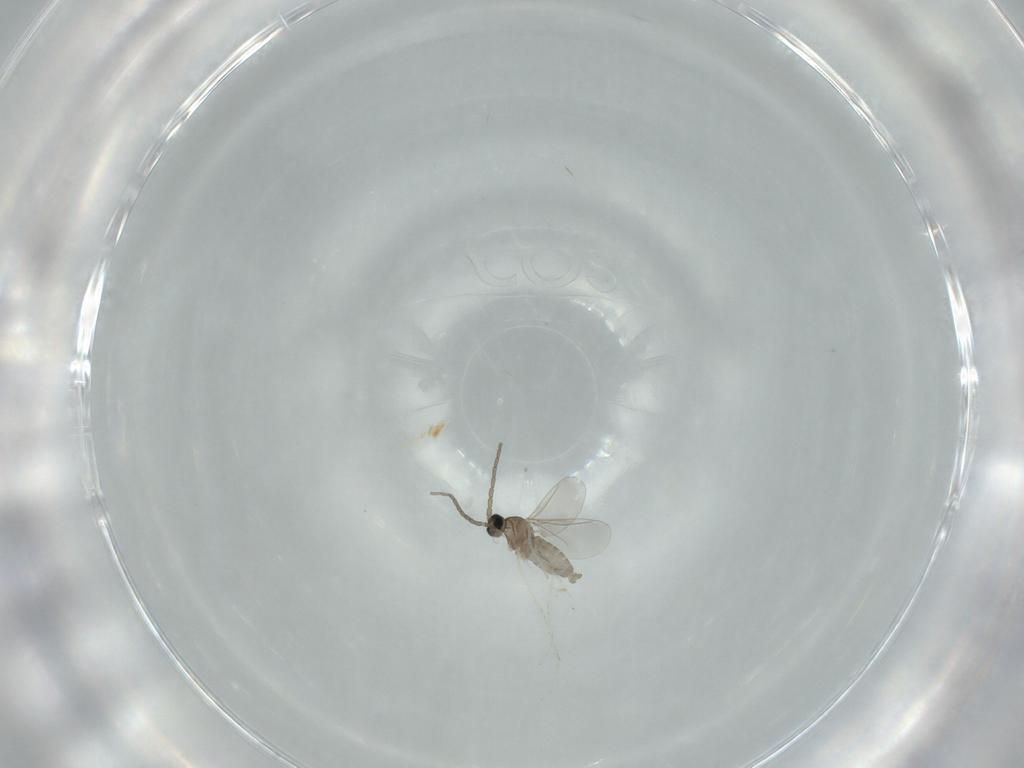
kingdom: Animalia
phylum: Arthropoda
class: Insecta
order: Diptera
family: Cecidomyiidae
